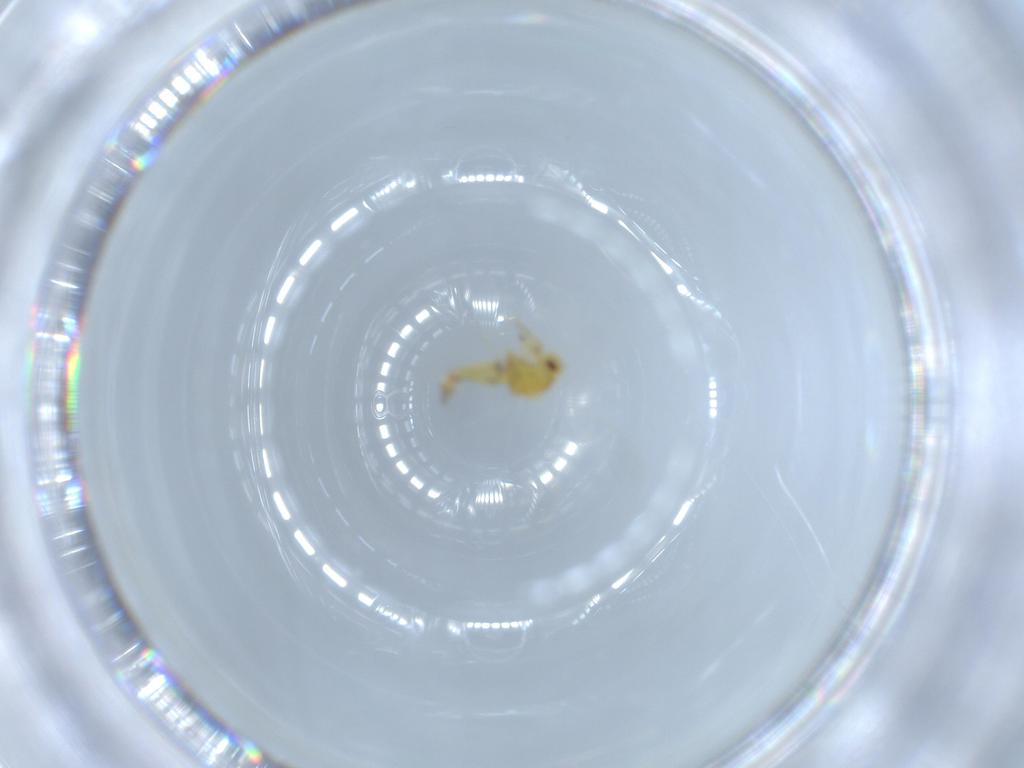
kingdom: Animalia
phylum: Arthropoda
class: Insecta
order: Hemiptera
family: Aleyrodidae
